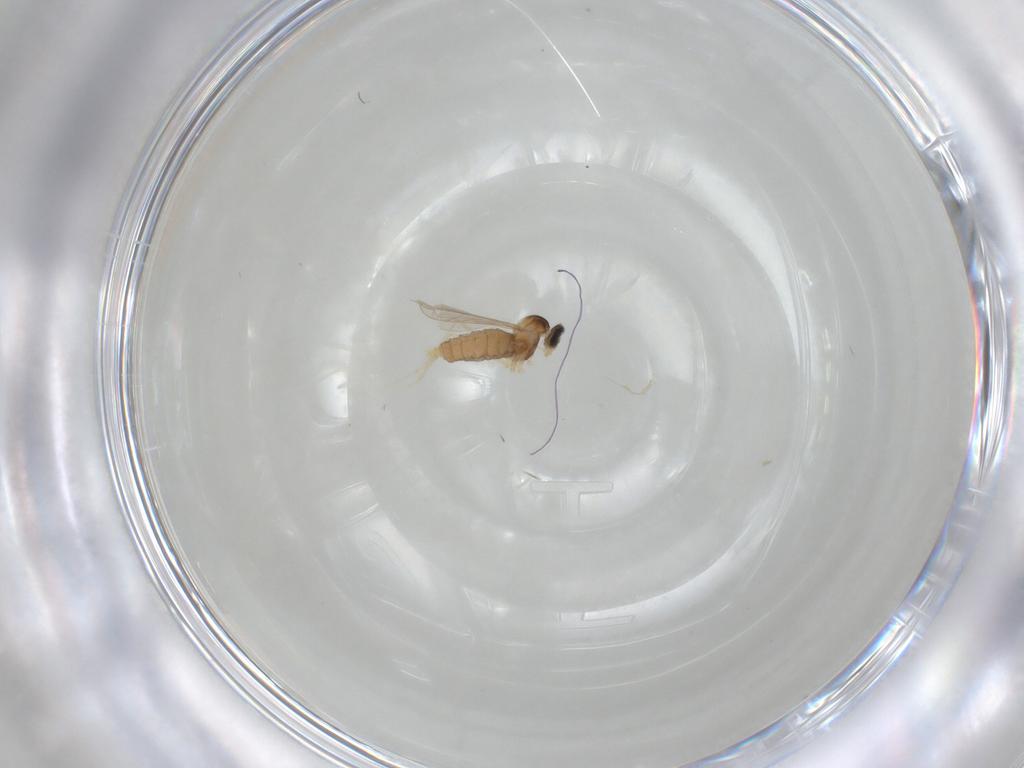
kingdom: Animalia
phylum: Arthropoda
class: Insecta
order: Diptera
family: Cecidomyiidae
